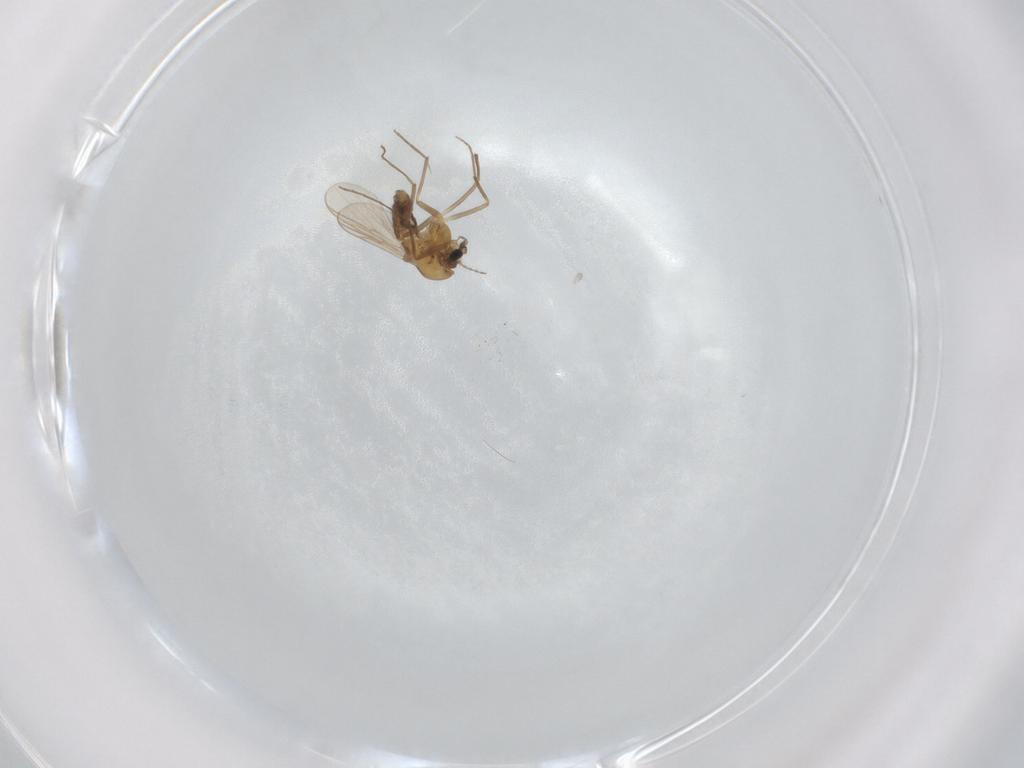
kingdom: Animalia
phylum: Arthropoda
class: Insecta
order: Diptera
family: Chironomidae
